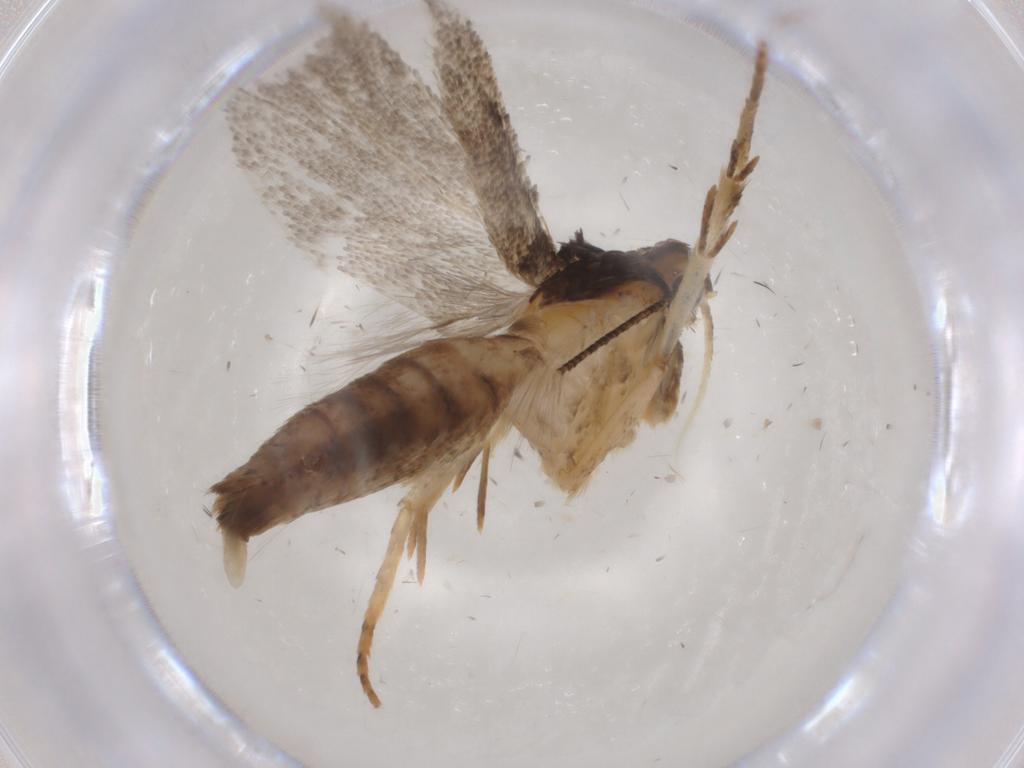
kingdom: Animalia
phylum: Arthropoda
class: Insecta
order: Lepidoptera
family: Gelechiidae
